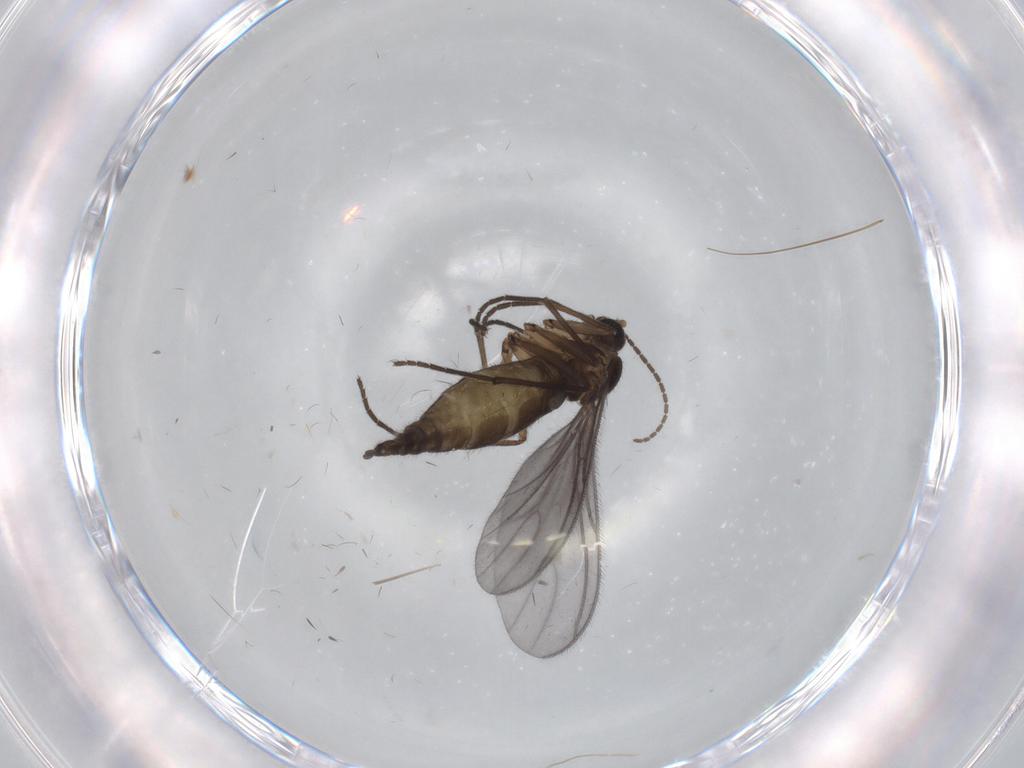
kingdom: Animalia
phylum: Arthropoda
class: Insecta
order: Diptera
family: Sciaridae
